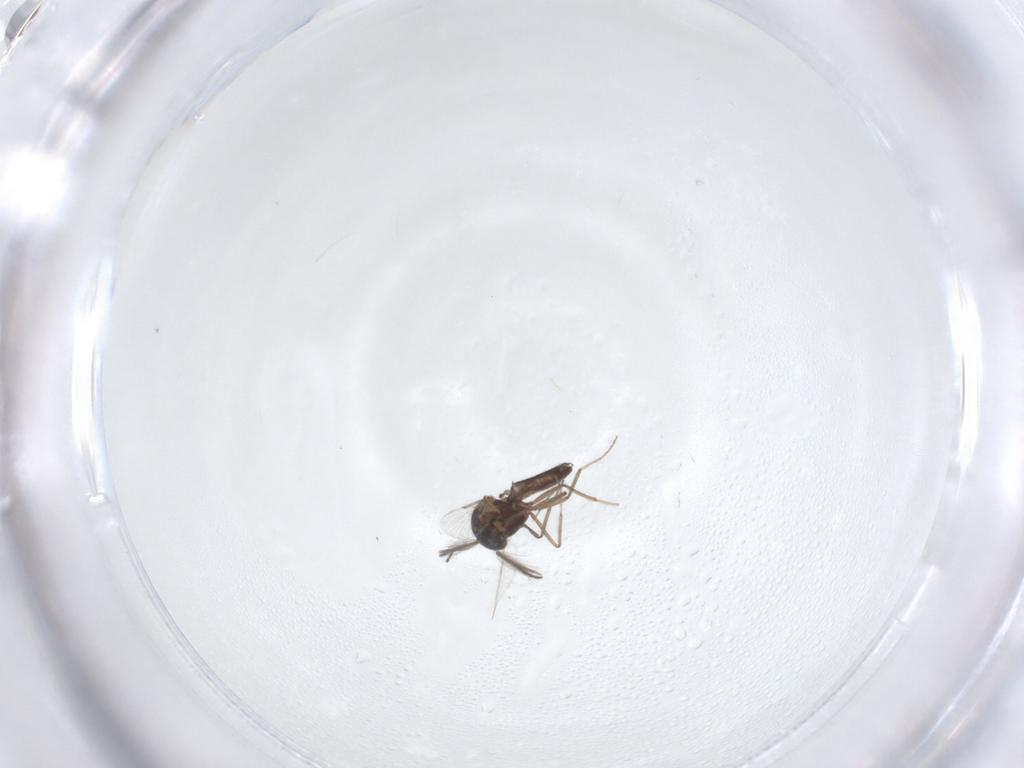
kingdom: Animalia
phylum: Arthropoda
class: Insecta
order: Diptera
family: Ceratopogonidae
